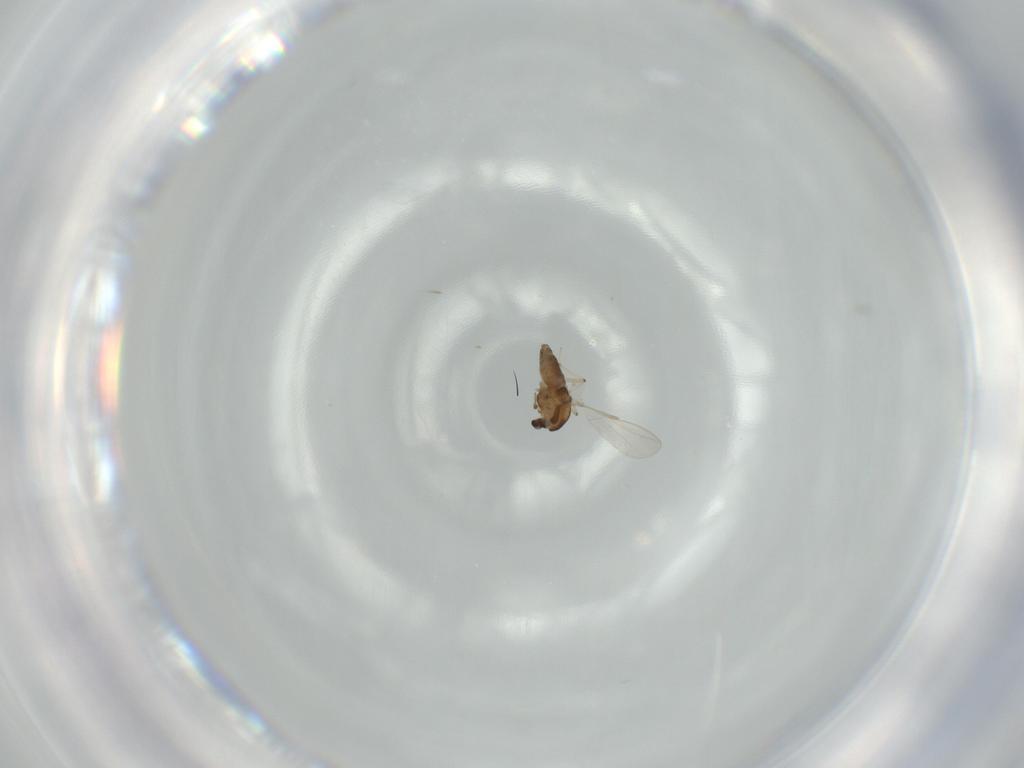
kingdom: Animalia
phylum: Arthropoda
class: Insecta
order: Diptera
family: Chironomidae
